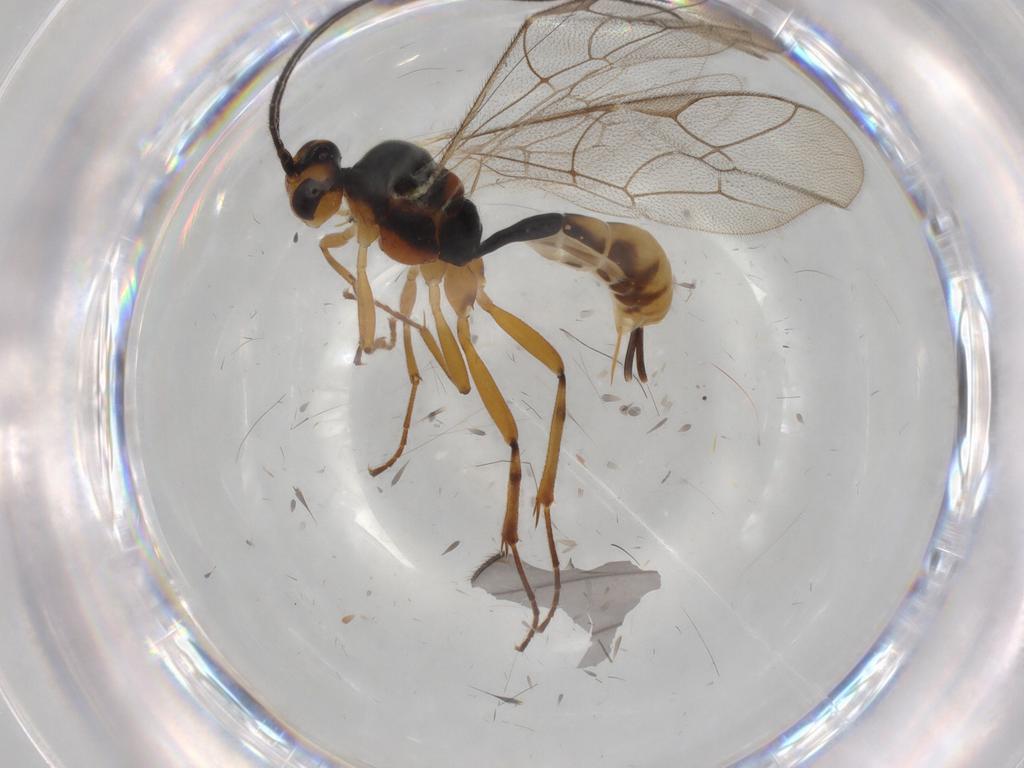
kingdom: Animalia
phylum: Arthropoda
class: Insecta
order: Hymenoptera
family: Ichneumonidae
